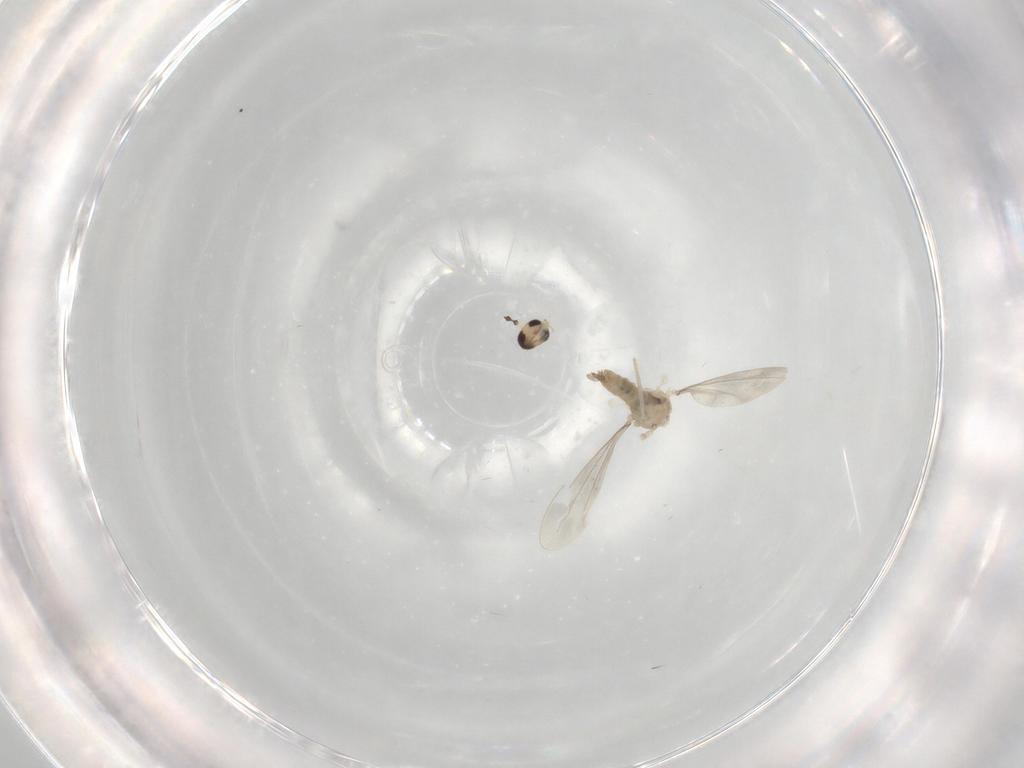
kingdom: Animalia
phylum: Arthropoda
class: Insecta
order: Diptera
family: Cecidomyiidae
